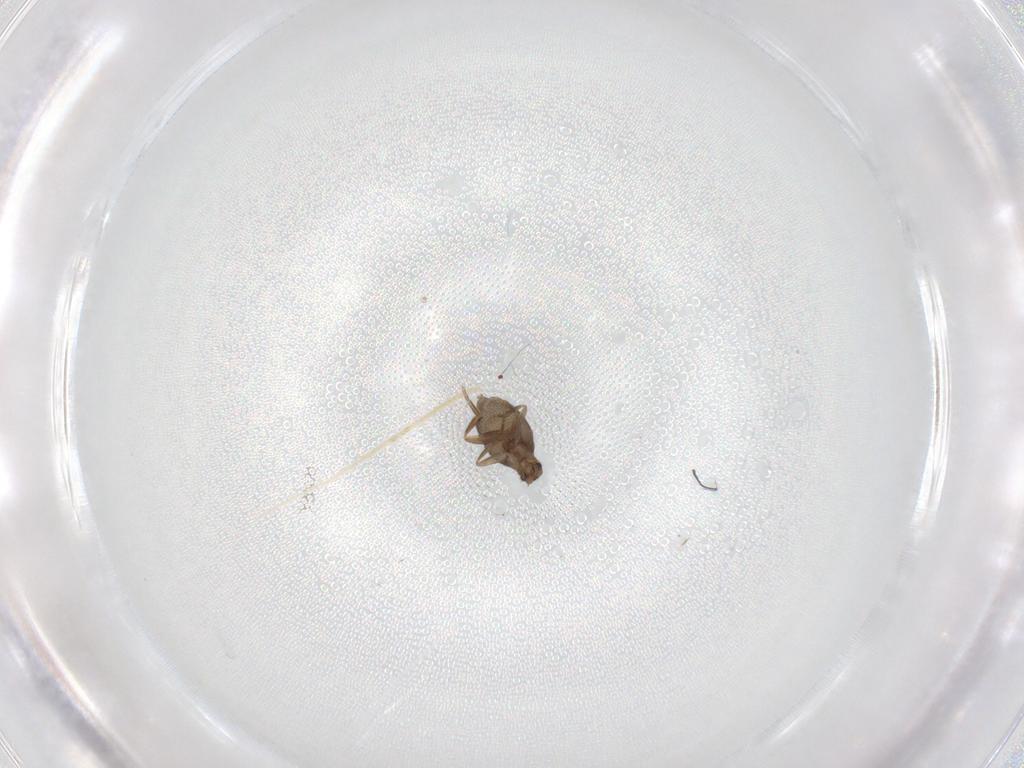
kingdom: Animalia
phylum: Arthropoda
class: Insecta
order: Diptera
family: Phoridae
